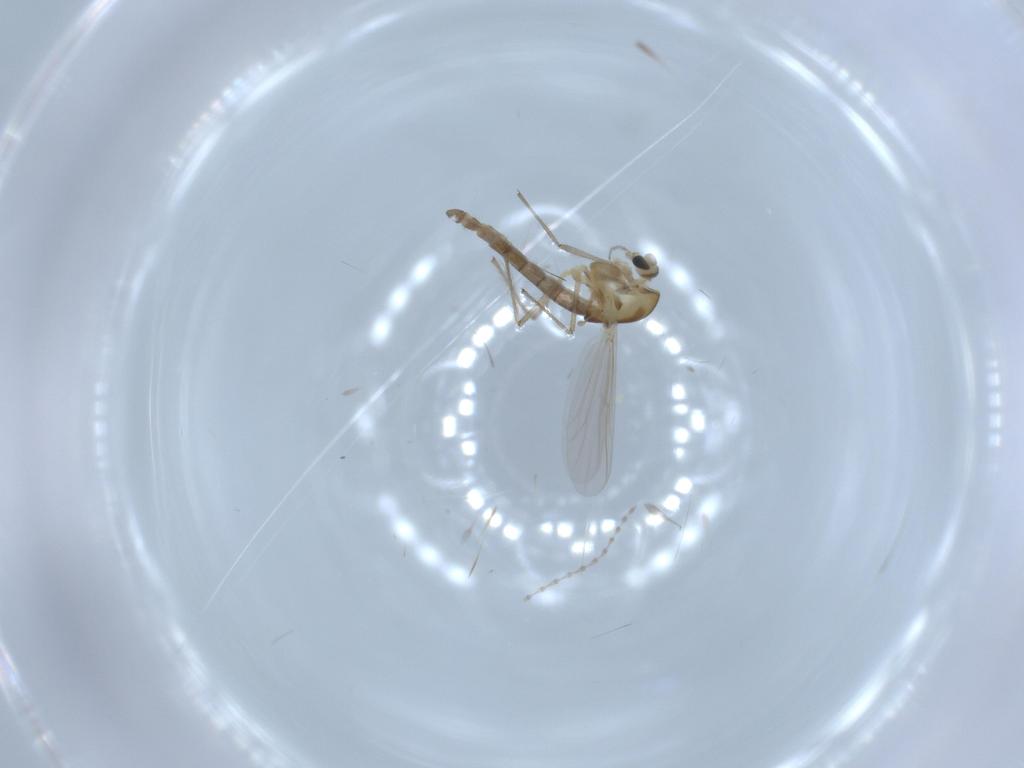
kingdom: Animalia
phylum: Arthropoda
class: Insecta
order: Diptera
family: Chironomidae
